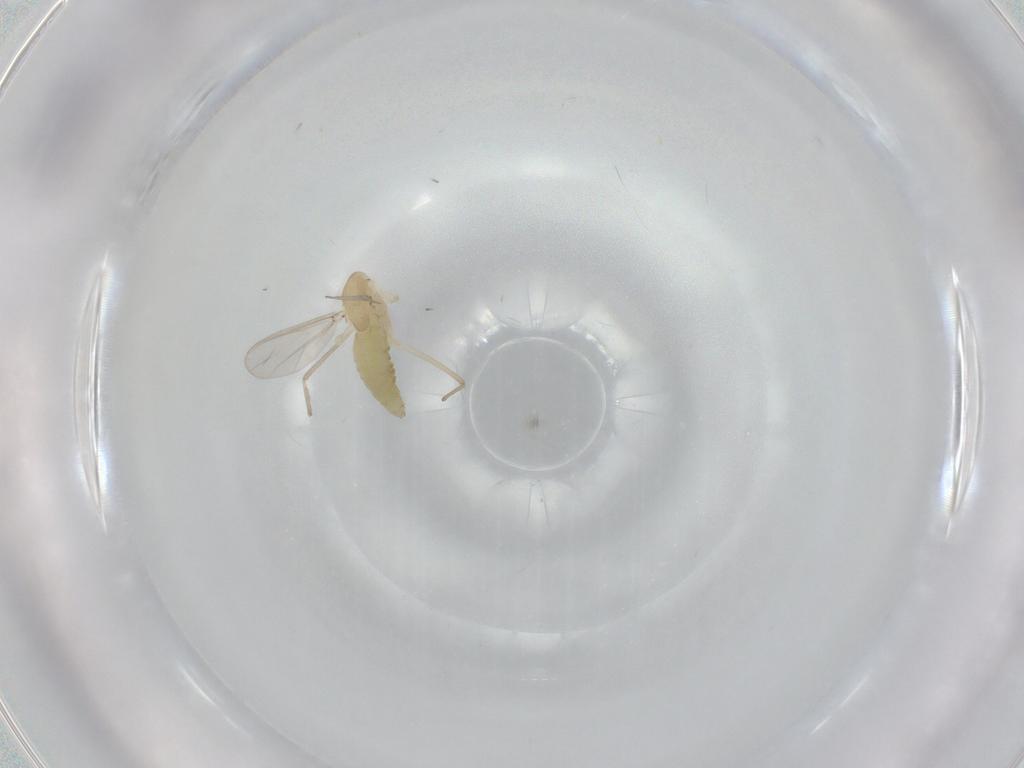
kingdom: Animalia
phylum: Arthropoda
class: Insecta
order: Diptera
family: Chironomidae
